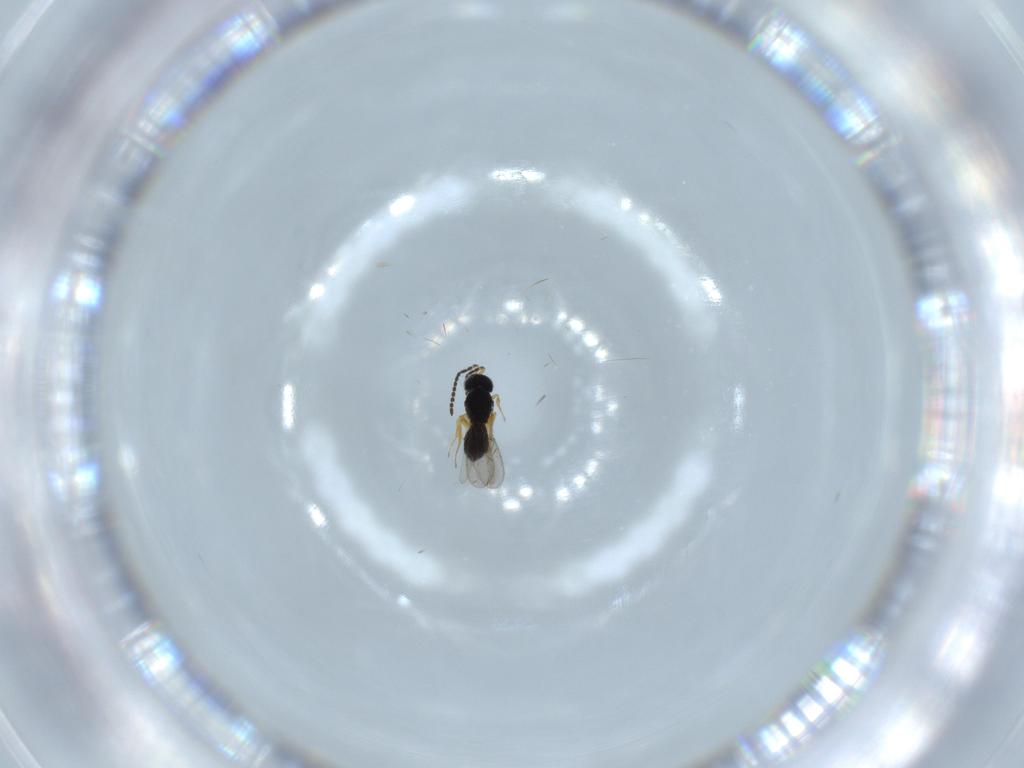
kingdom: Animalia
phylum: Arthropoda
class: Insecta
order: Hymenoptera
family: Scelionidae
